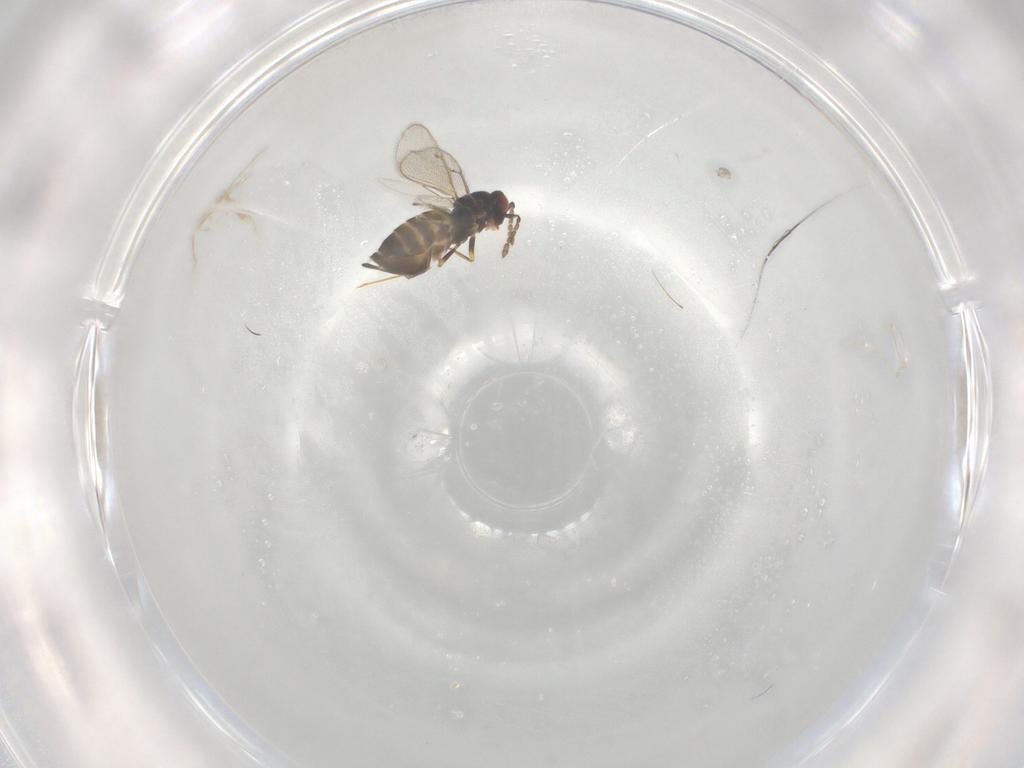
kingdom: Animalia
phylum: Arthropoda
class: Insecta
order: Hymenoptera
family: Eulophidae
